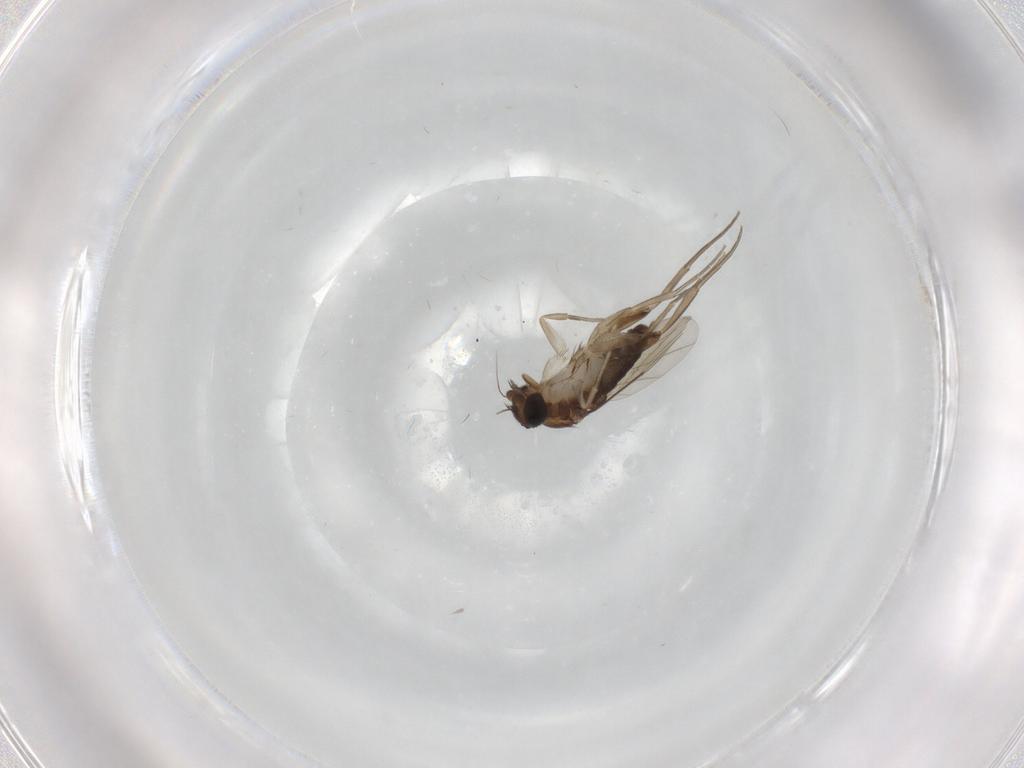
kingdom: Animalia
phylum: Arthropoda
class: Insecta
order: Diptera
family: Phoridae
